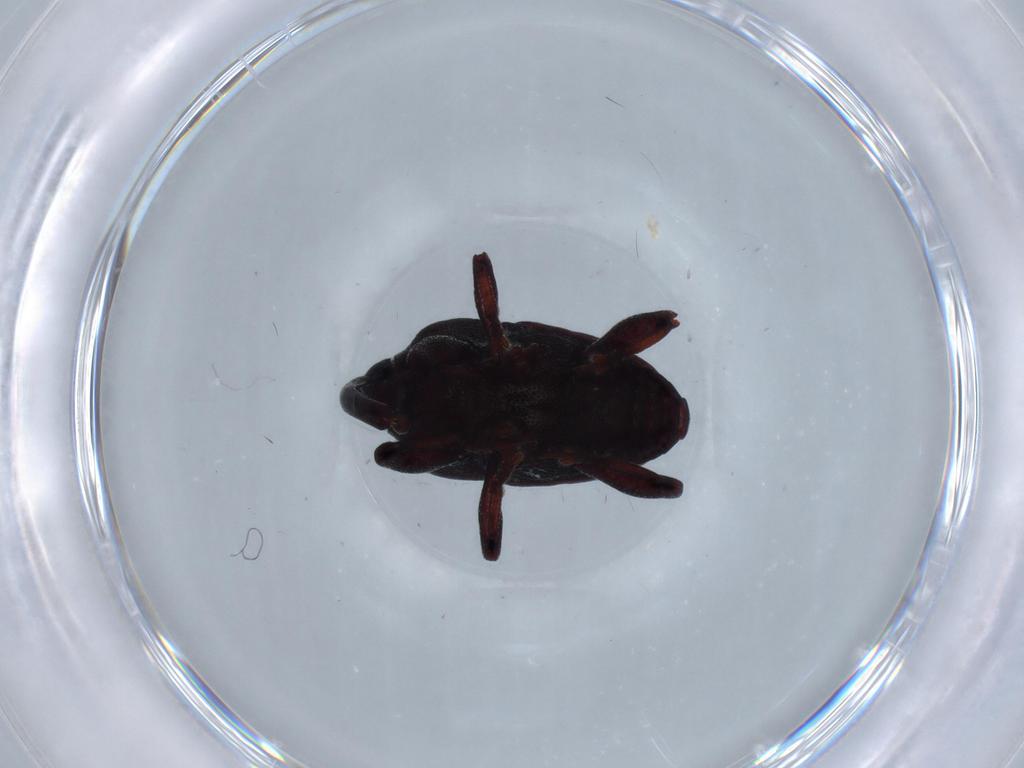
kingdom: Animalia
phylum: Arthropoda
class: Insecta
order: Coleoptera
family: Curculionidae
